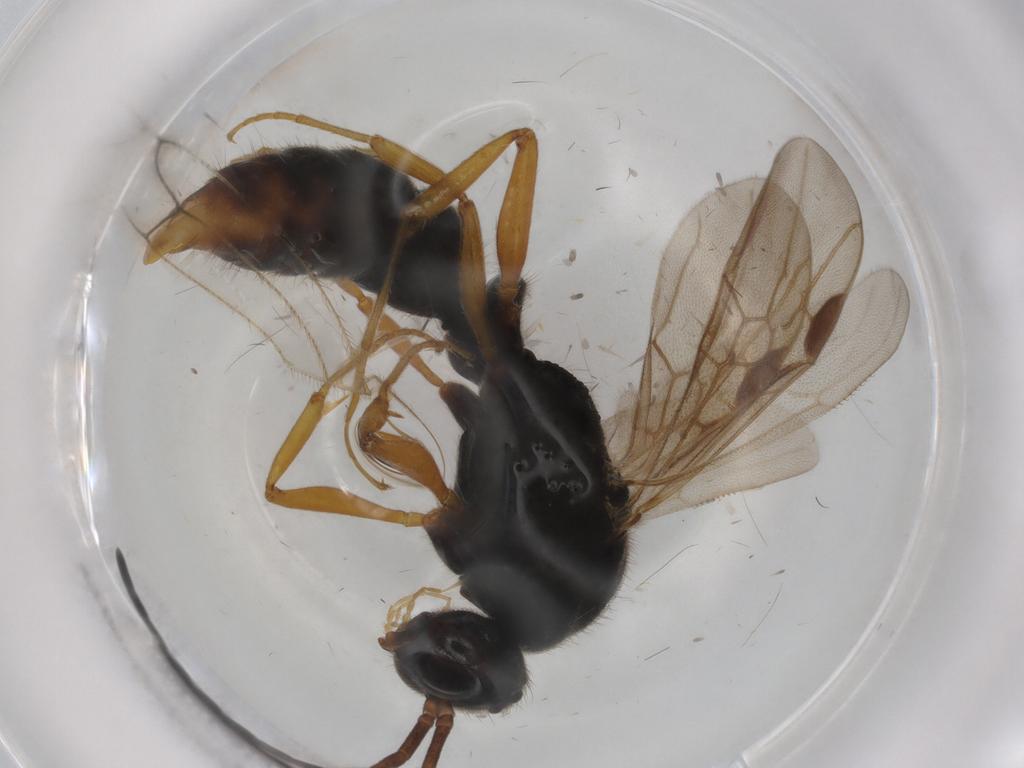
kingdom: Animalia
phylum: Arthropoda
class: Insecta
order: Hymenoptera
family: Formicidae
